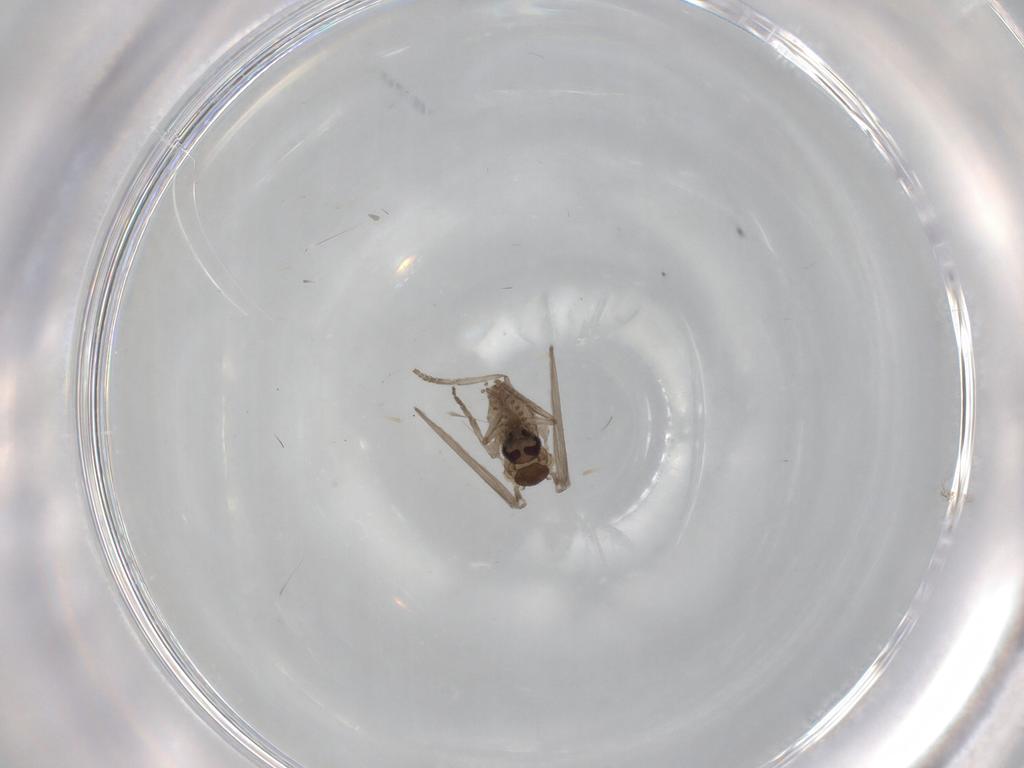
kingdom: Animalia
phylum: Arthropoda
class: Insecta
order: Diptera
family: Cecidomyiidae
